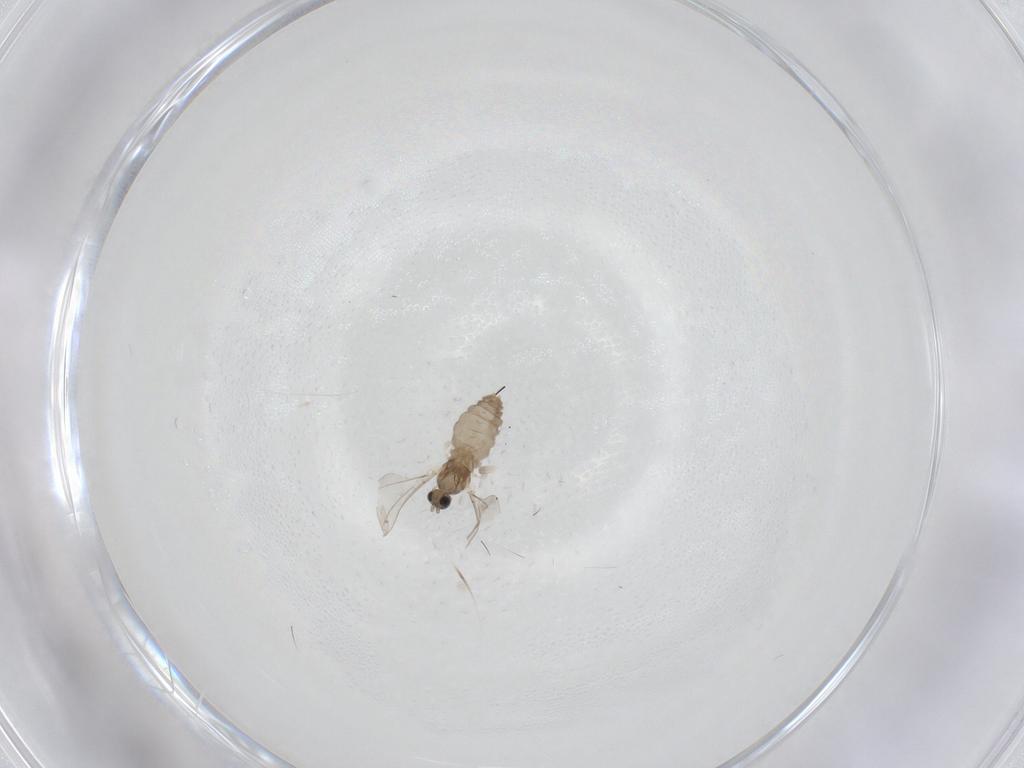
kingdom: Animalia
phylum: Arthropoda
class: Insecta
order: Diptera
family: Cecidomyiidae
